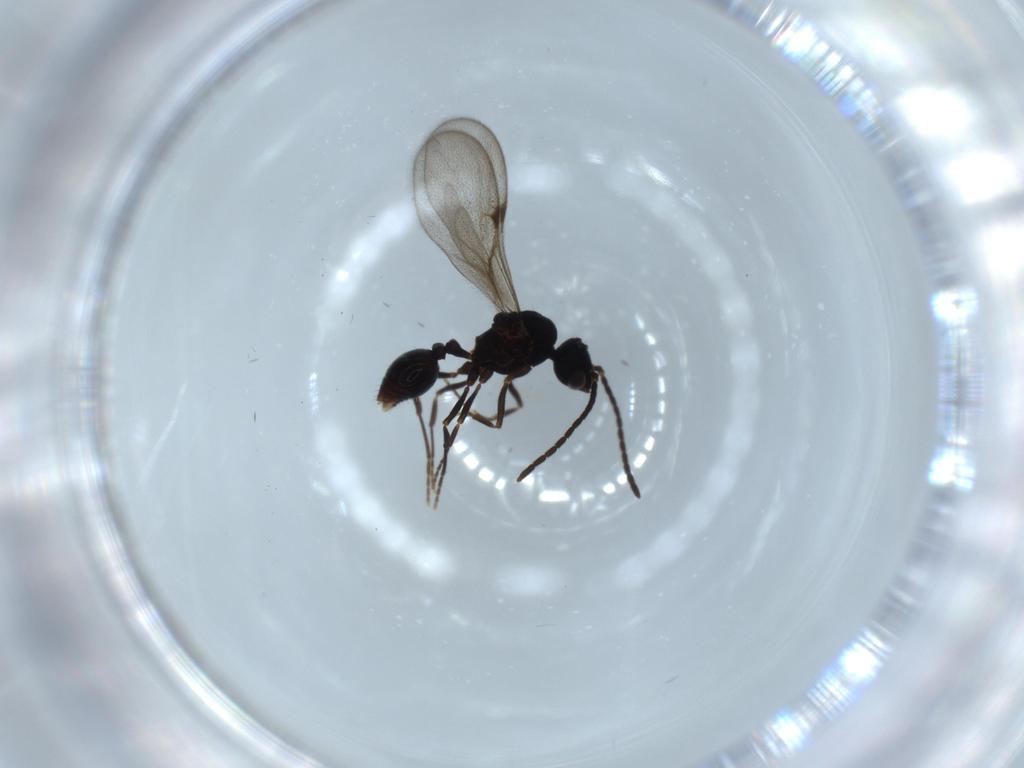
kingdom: Animalia
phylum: Arthropoda
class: Insecta
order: Hymenoptera
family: Formicidae
